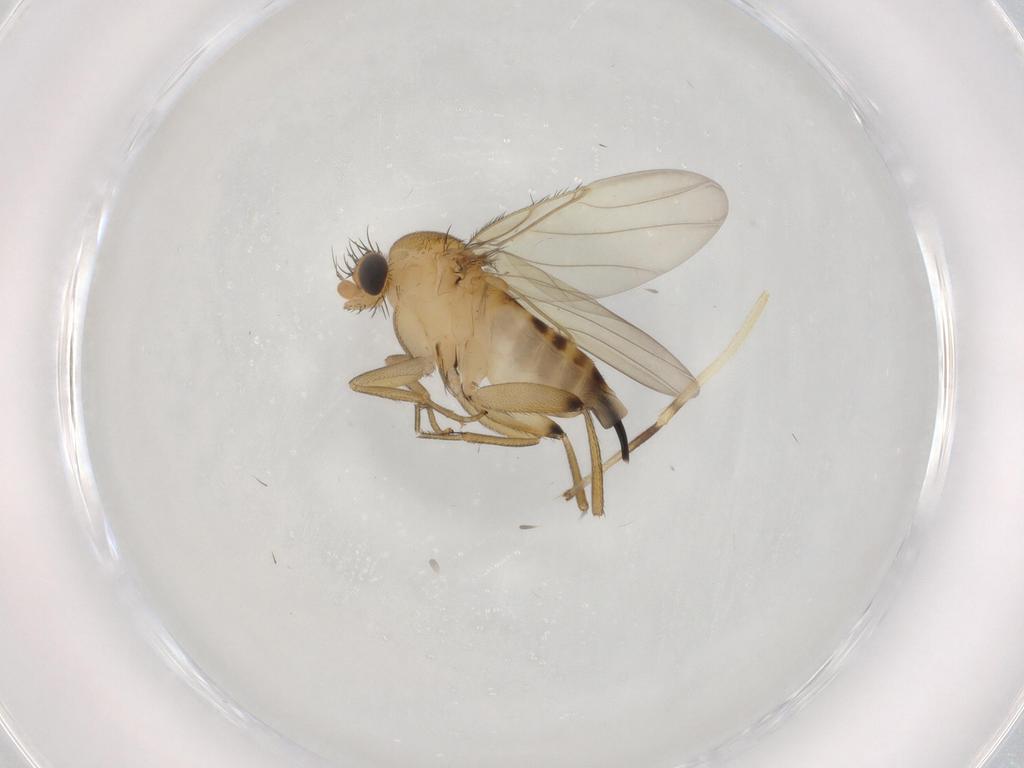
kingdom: Animalia
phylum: Arthropoda
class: Insecta
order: Diptera
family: Phoridae
